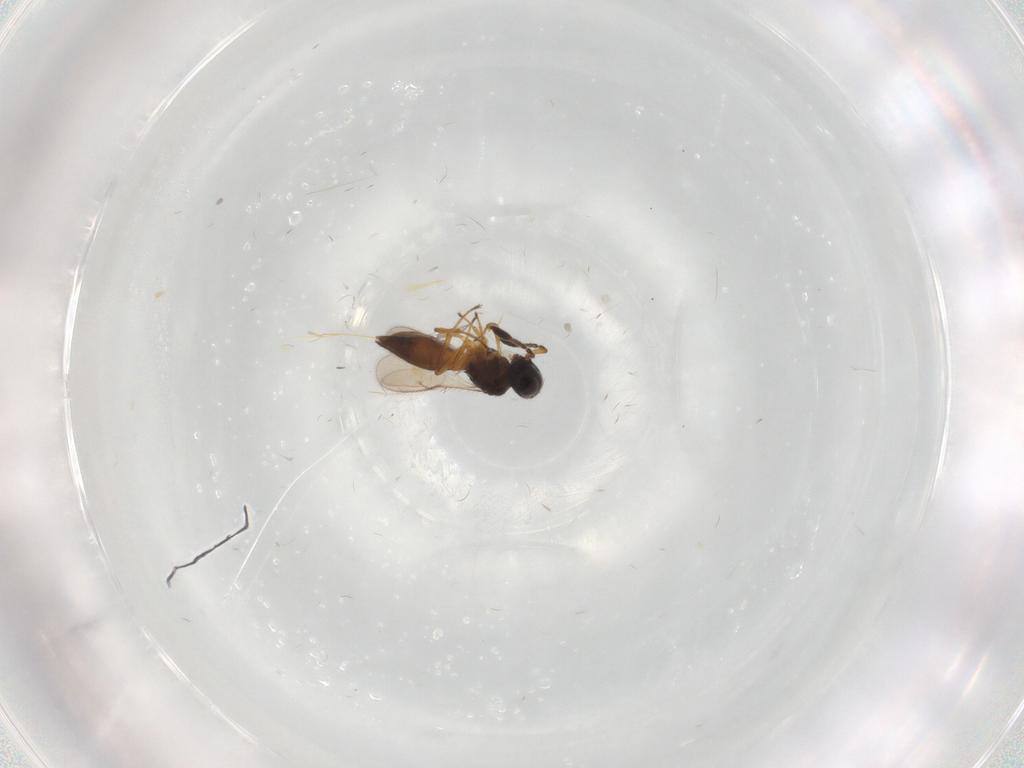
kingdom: Animalia
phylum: Arthropoda
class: Insecta
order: Hymenoptera
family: Scelionidae
